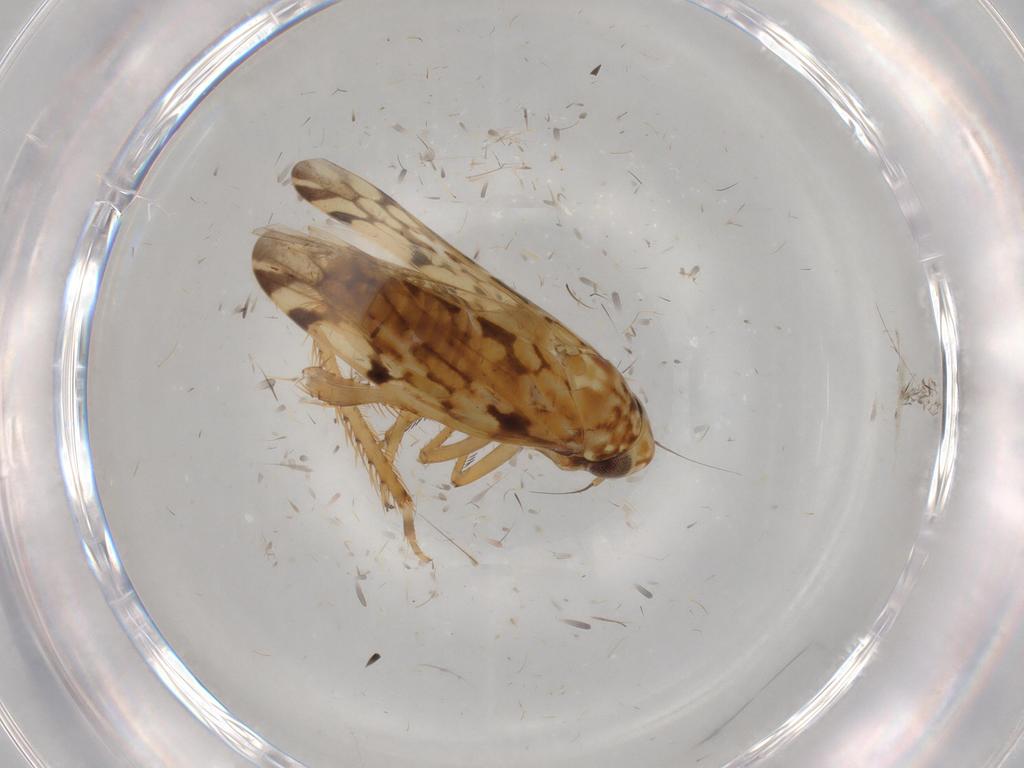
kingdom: Animalia
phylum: Arthropoda
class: Insecta
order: Hemiptera
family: Cicadellidae
